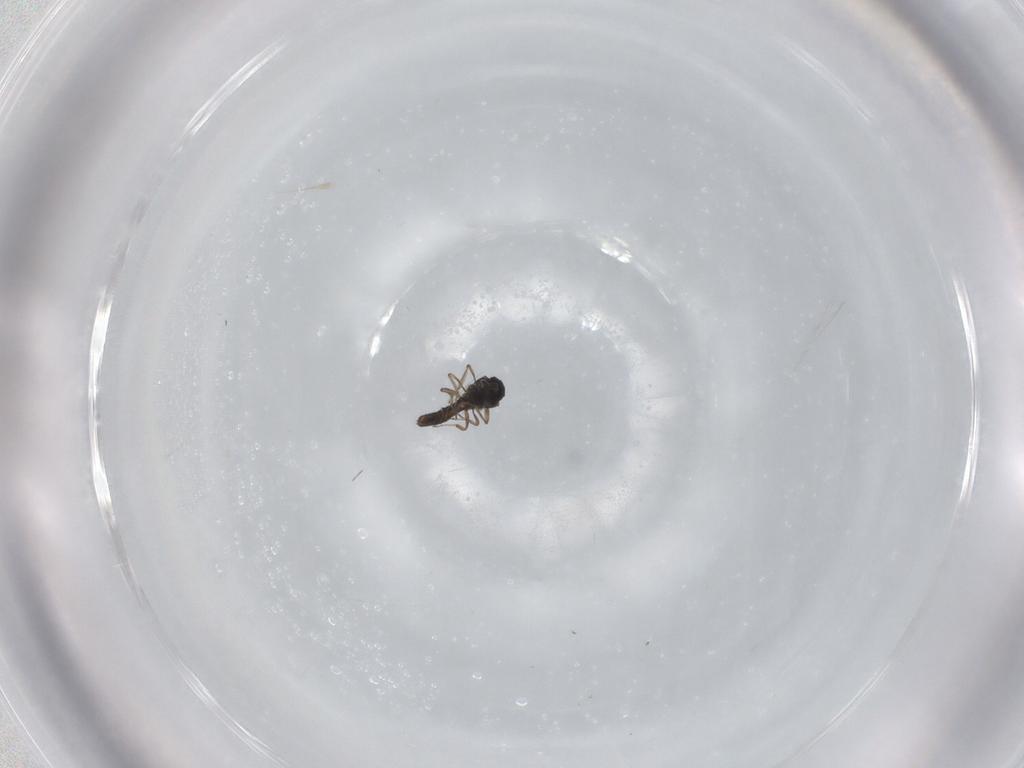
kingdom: Animalia
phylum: Arthropoda
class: Insecta
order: Diptera
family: Ceratopogonidae
